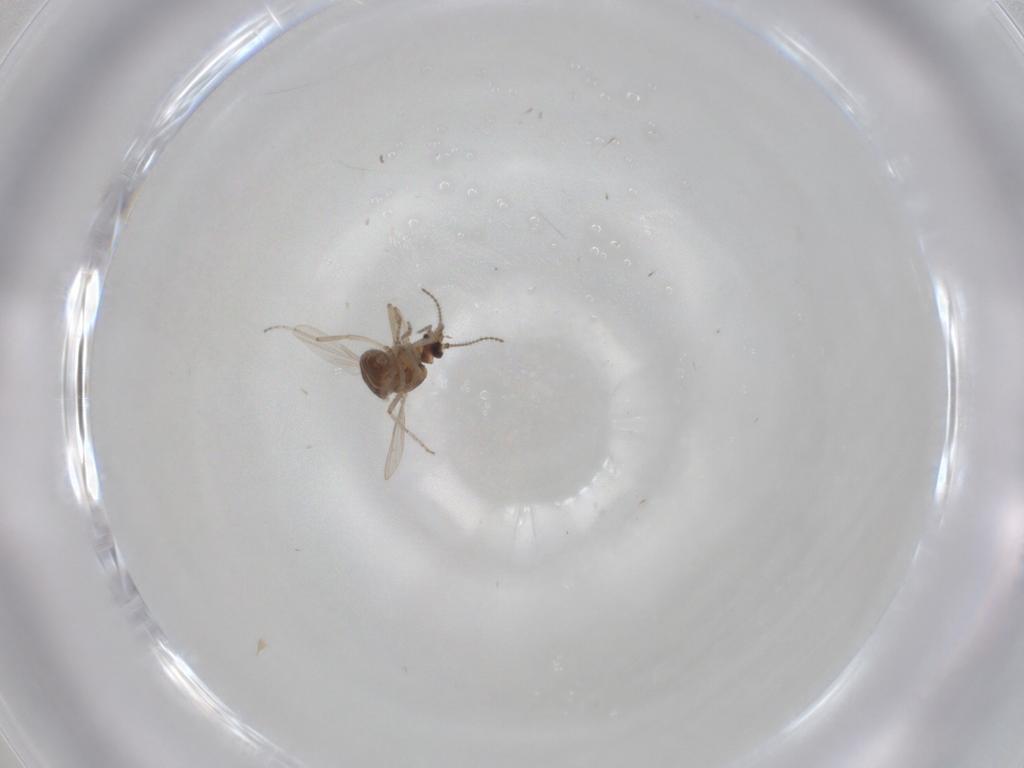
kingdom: Animalia
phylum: Arthropoda
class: Insecta
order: Diptera
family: Ceratopogonidae
